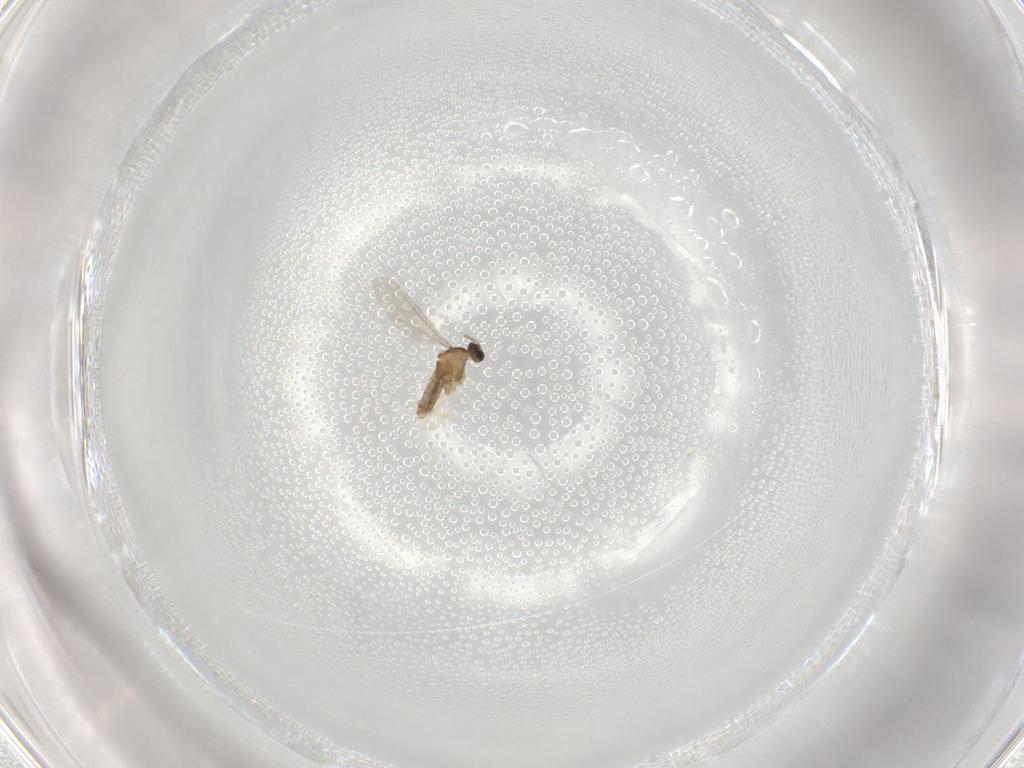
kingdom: Animalia
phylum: Arthropoda
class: Insecta
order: Diptera
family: Cecidomyiidae
